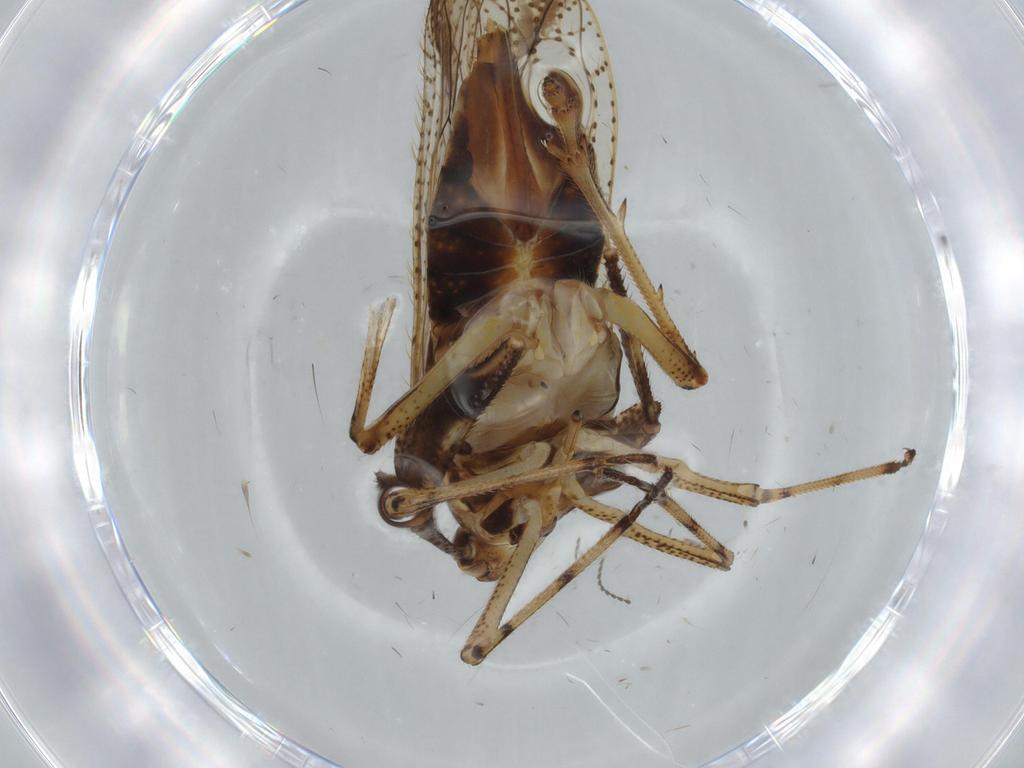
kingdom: Animalia
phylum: Arthropoda
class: Insecta
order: Hemiptera
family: Delphacidae
